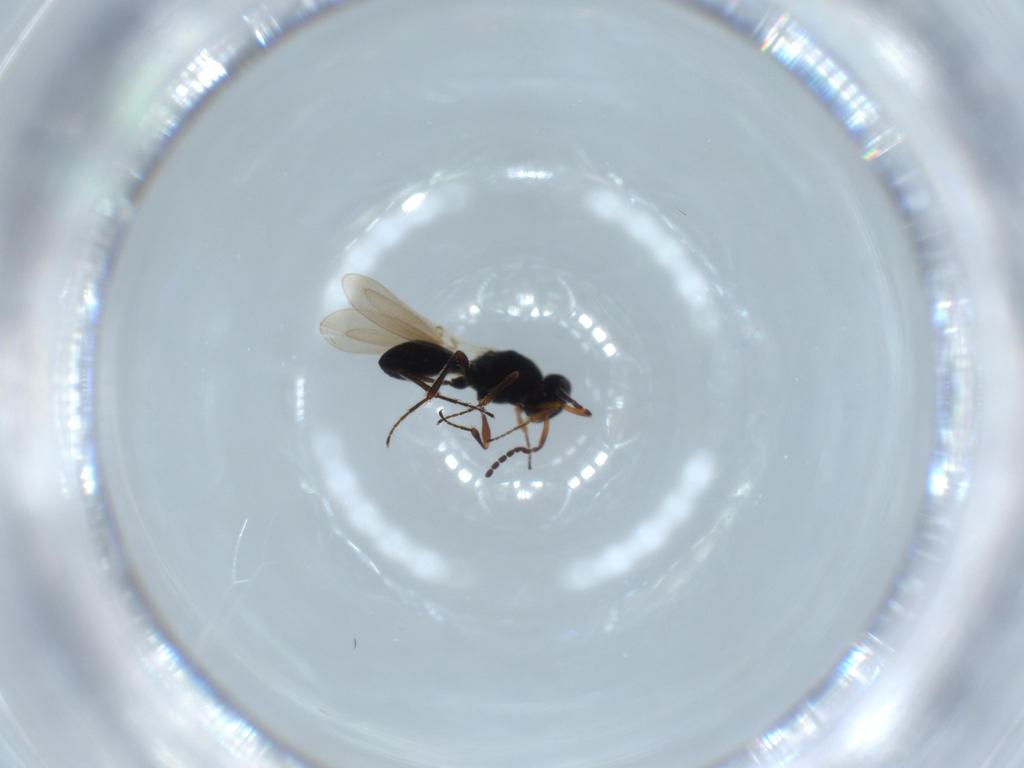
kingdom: Animalia
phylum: Arthropoda
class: Insecta
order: Hymenoptera
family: Platygastridae
